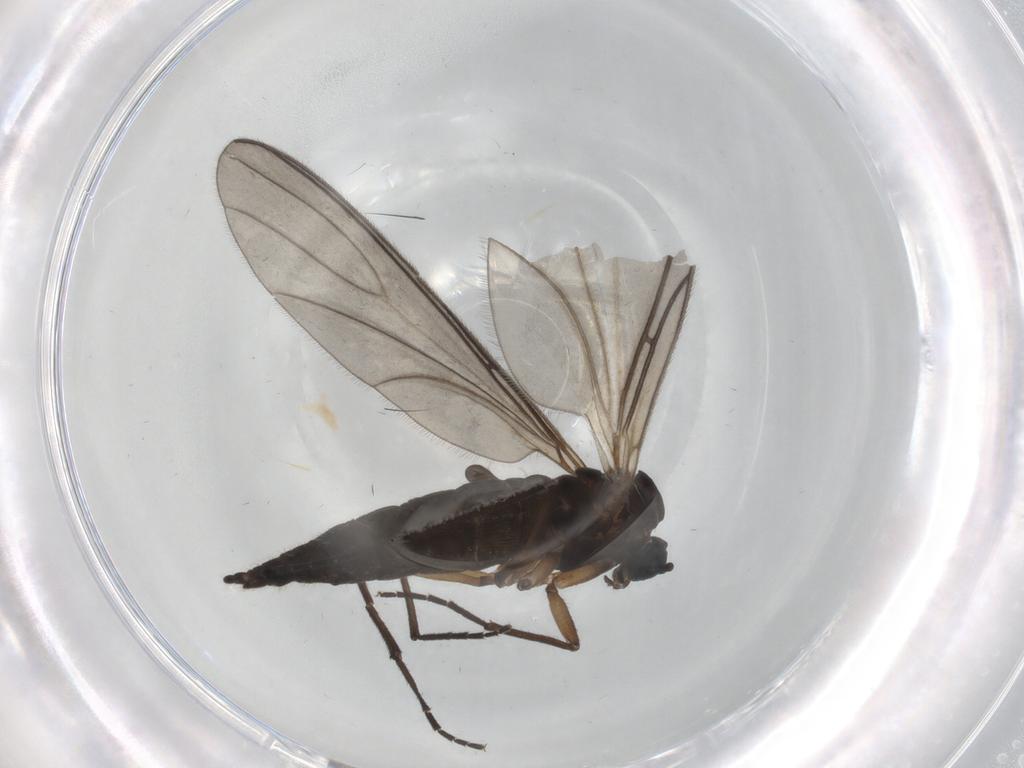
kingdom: Animalia
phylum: Arthropoda
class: Insecta
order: Diptera
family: Sciaridae
